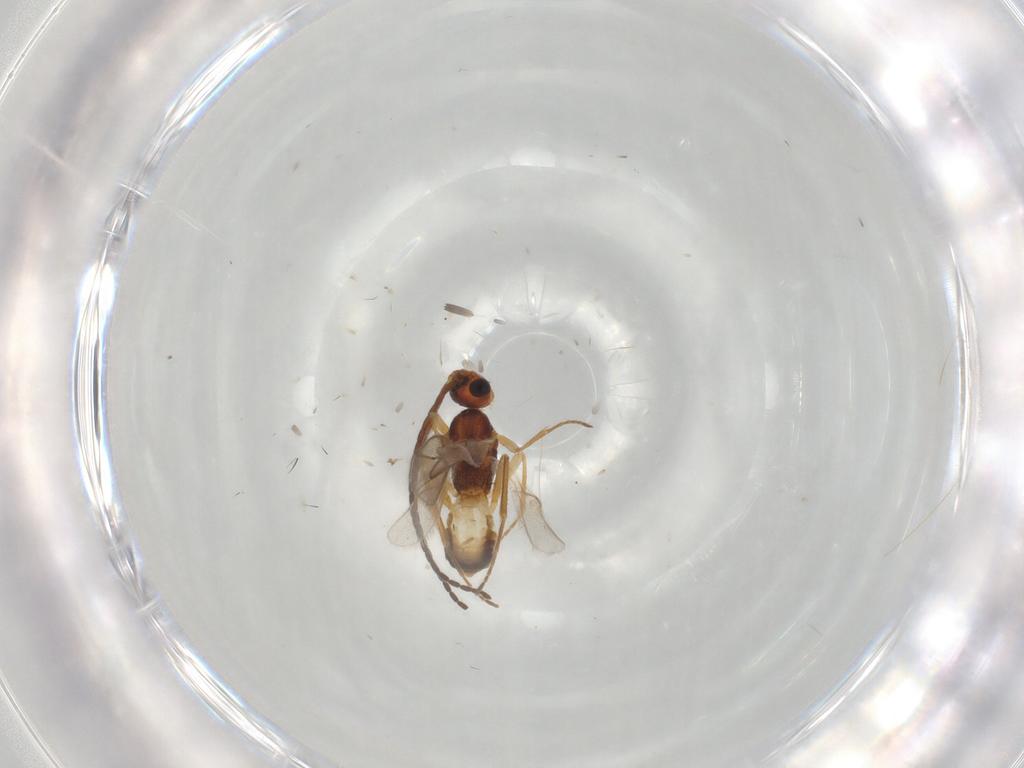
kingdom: Animalia
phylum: Arthropoda
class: Insecta
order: Hymenoptera
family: Braconidae
